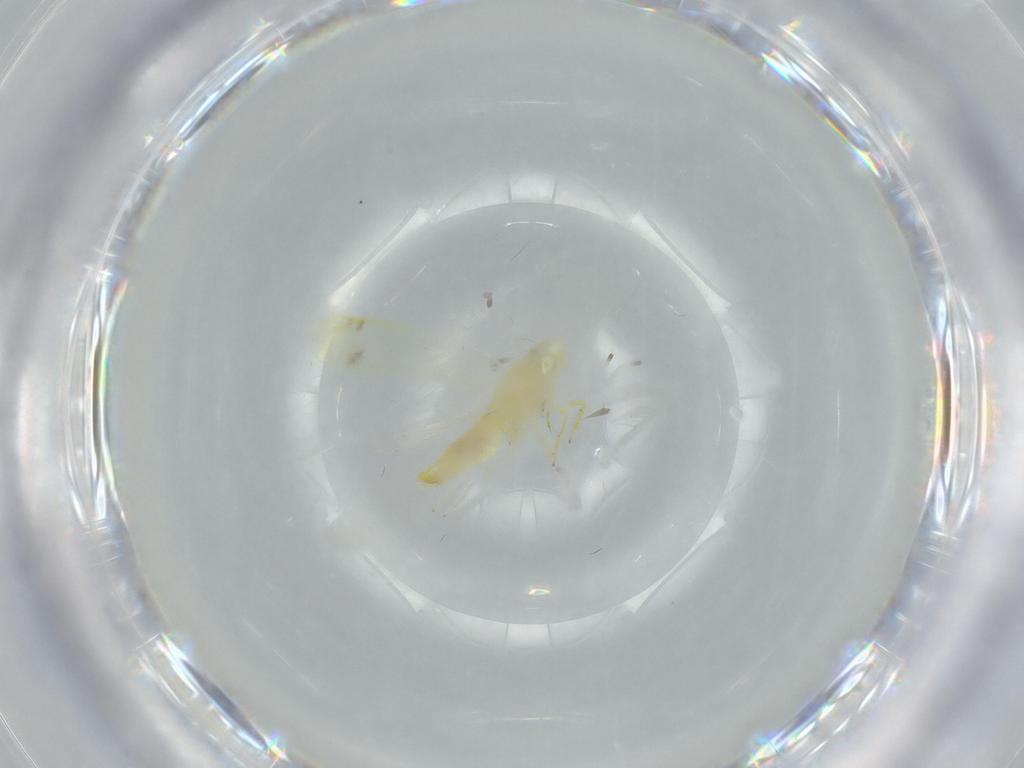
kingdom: Animalia
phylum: Arthropoda
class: Insecta
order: Hemiptera
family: Cicadellidae
